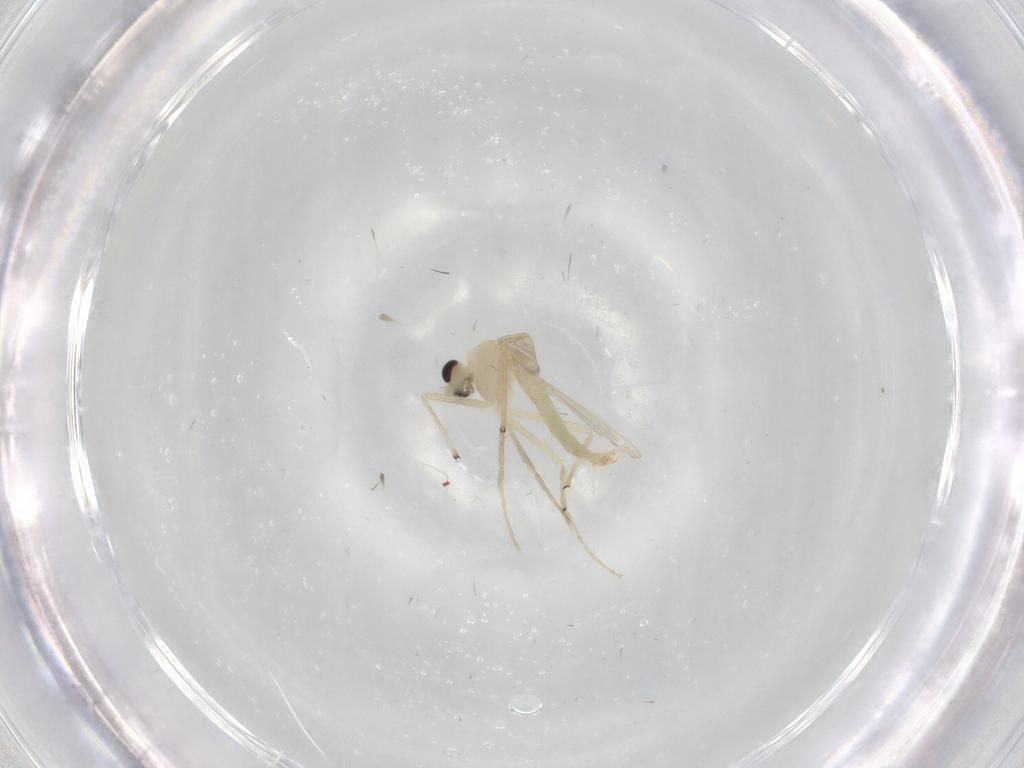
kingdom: Animalia
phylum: Arthropoda
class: Insecta
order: Diptera
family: Chironomidae
